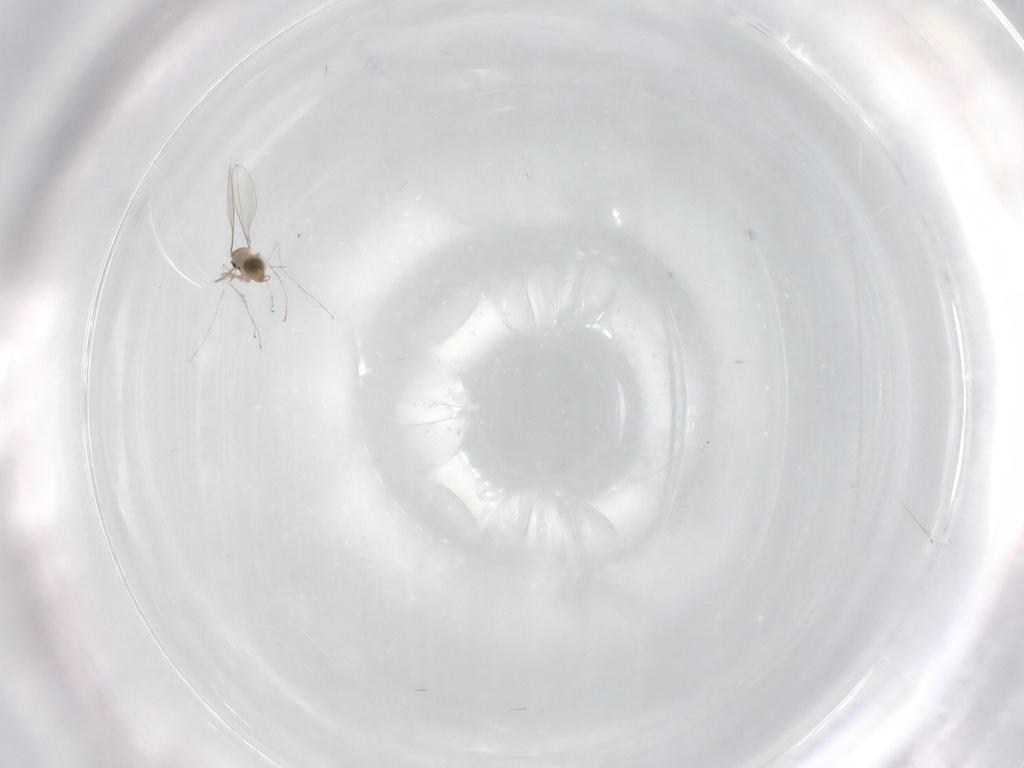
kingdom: Animalia
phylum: Arthropoda
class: Insecta
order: Diptera
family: Cecidomyiidae
